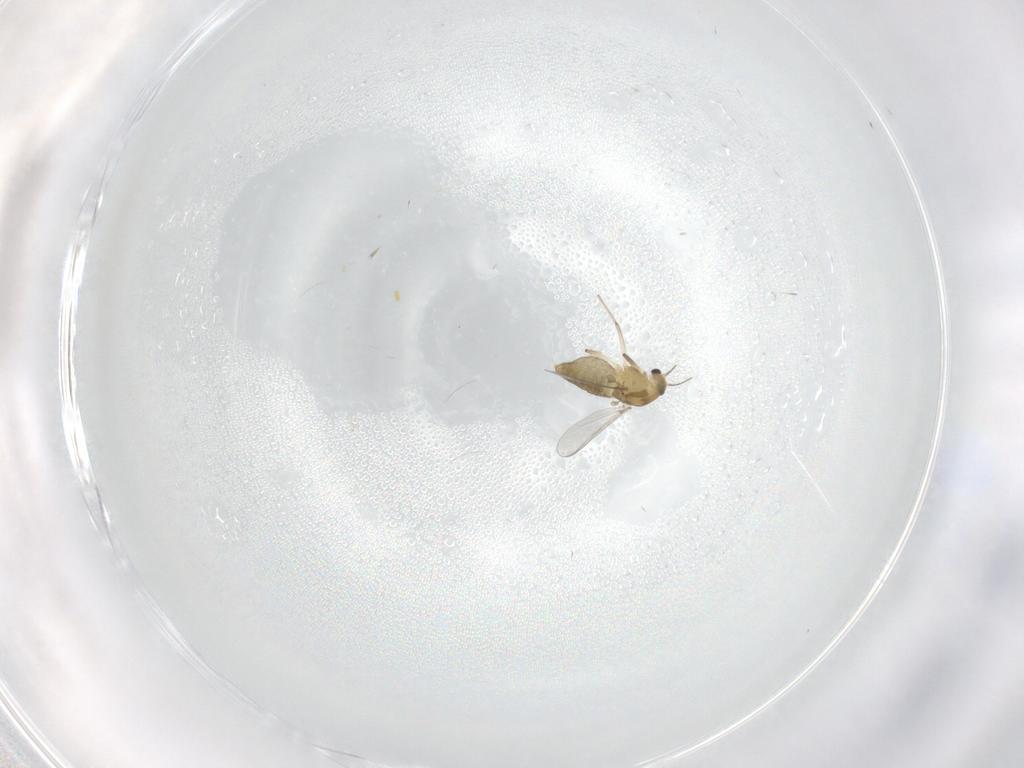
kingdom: Animalia
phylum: Arthropoda
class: Insecta
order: Diptera
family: Chironomidae
